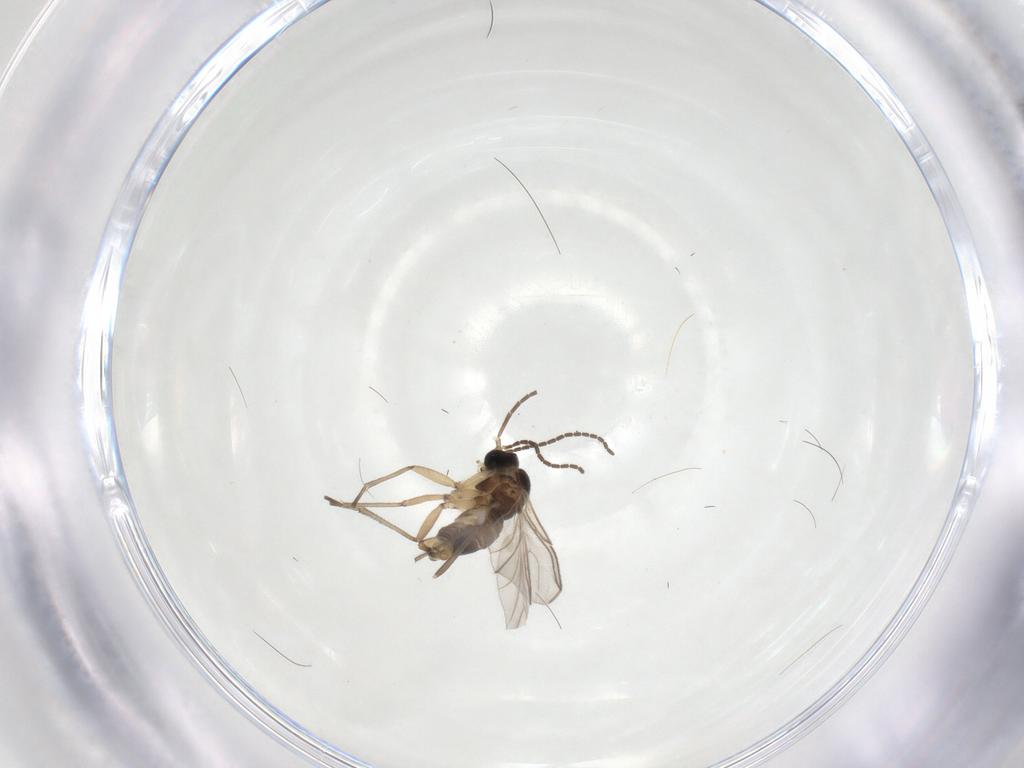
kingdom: Animalia
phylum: Arthropoda
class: Insecta
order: Diptera
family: Sciaridae
